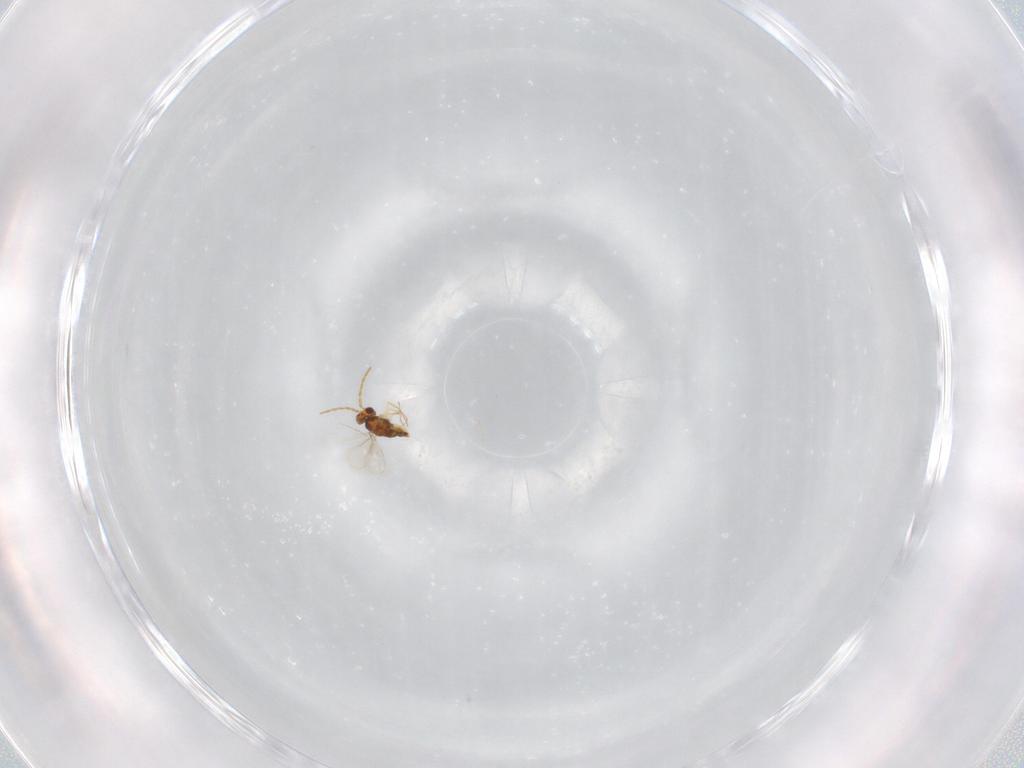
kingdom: Animalia
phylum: Arthropoda
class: Insecta
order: Hymenoptera
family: Aphelinidae
